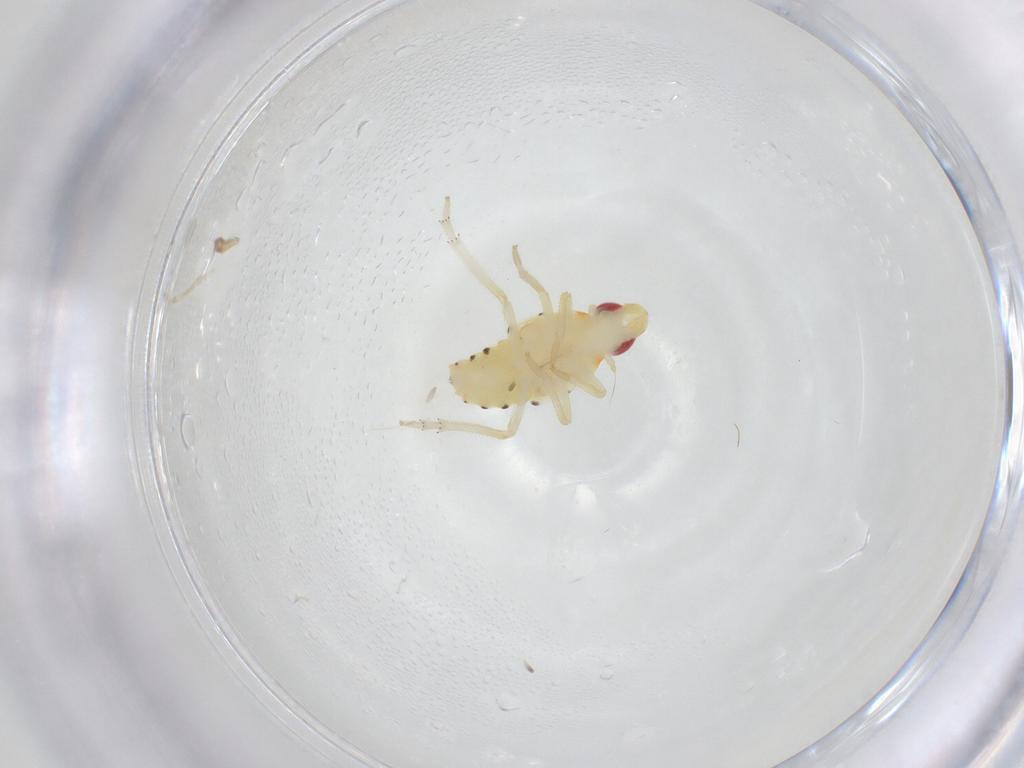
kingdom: Animalia
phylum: Arthropoda
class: Insecta
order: Hemiptera
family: Tropiduchidae
